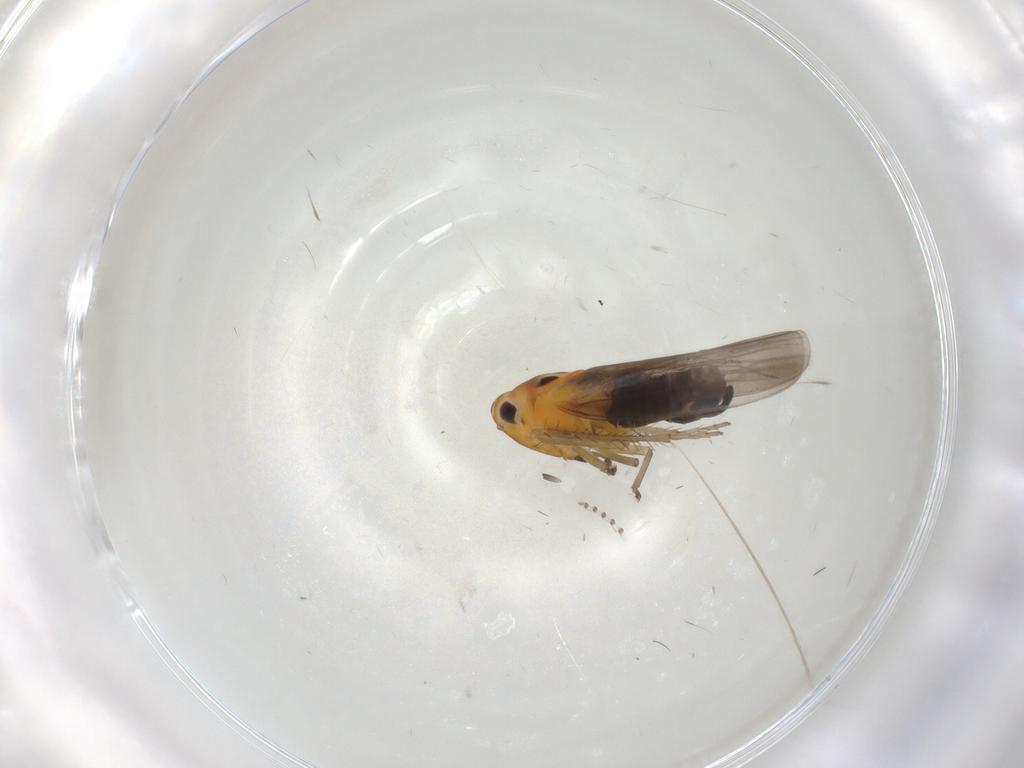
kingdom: Animalia
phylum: Arthropoda
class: Insecta
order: Hemiptera
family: Cicadellidae
